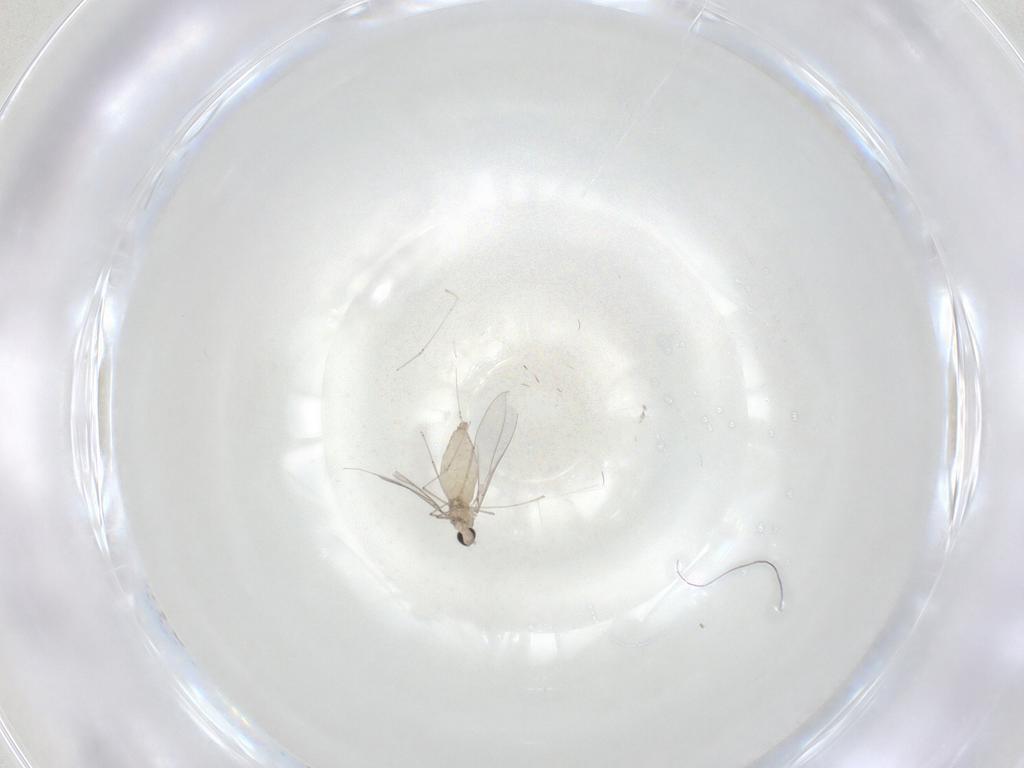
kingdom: Animalia
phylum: Arthropoda
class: Insecta
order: Diptera
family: Cecidomyiidae
